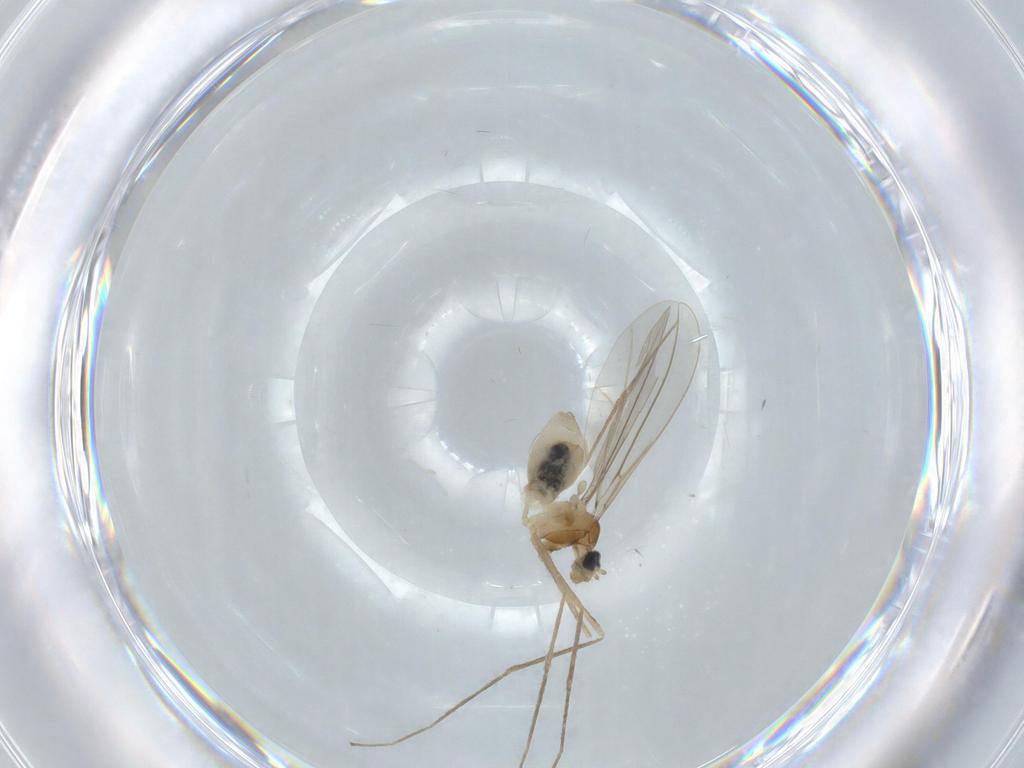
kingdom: Animalia
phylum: Arthropoda
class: Insecta
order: Diptera
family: Cecidomyiidae
